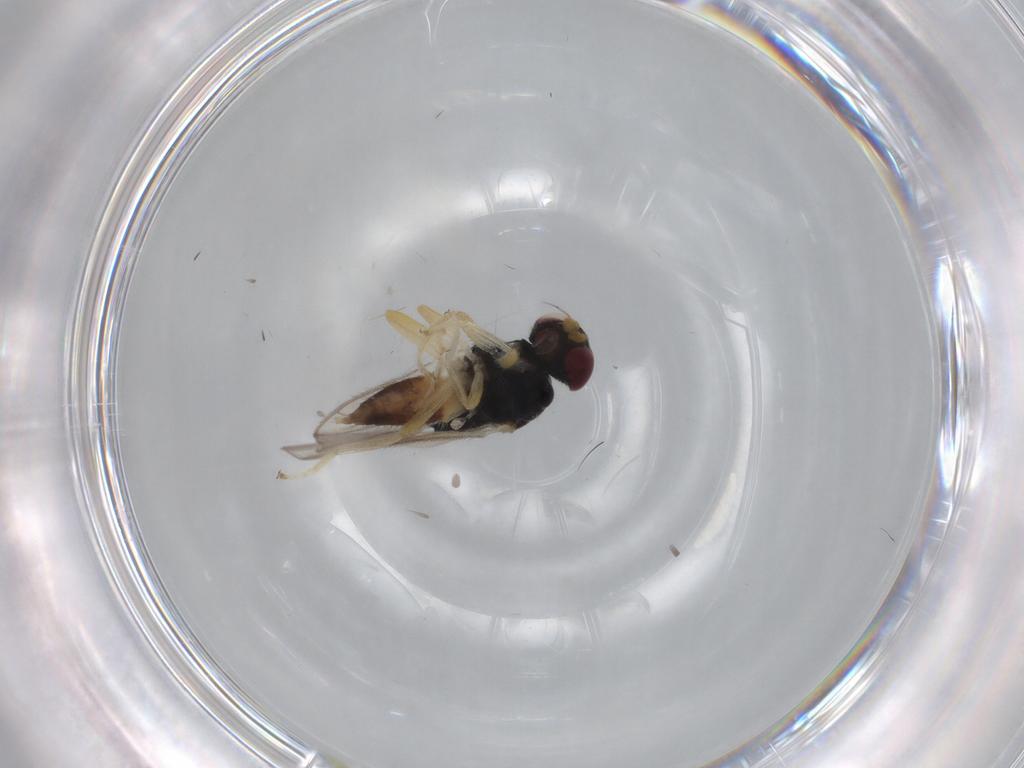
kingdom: Animalia
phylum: Arthropoda
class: Insecta
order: Diptera
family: Chloropidae
